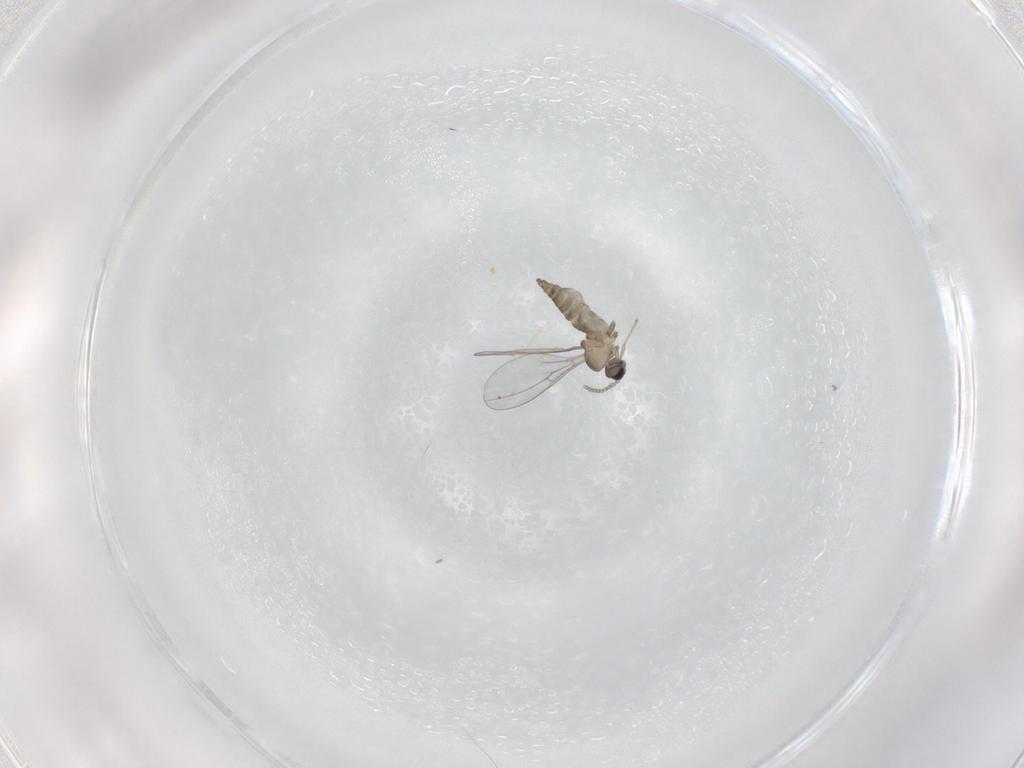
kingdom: Animalia
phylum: Arthropoda
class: Insecta
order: Diptera
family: Cecidomyiidae
